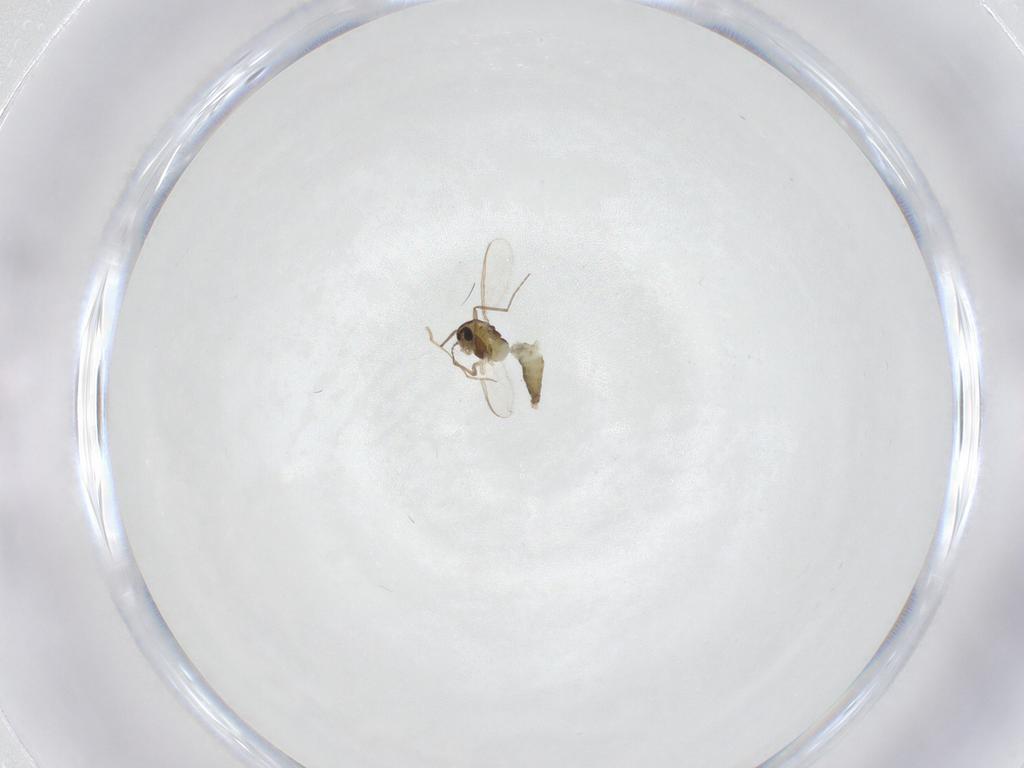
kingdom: Animalia
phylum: Arthropoda
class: Insecta
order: Diptera
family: Chironomidae
